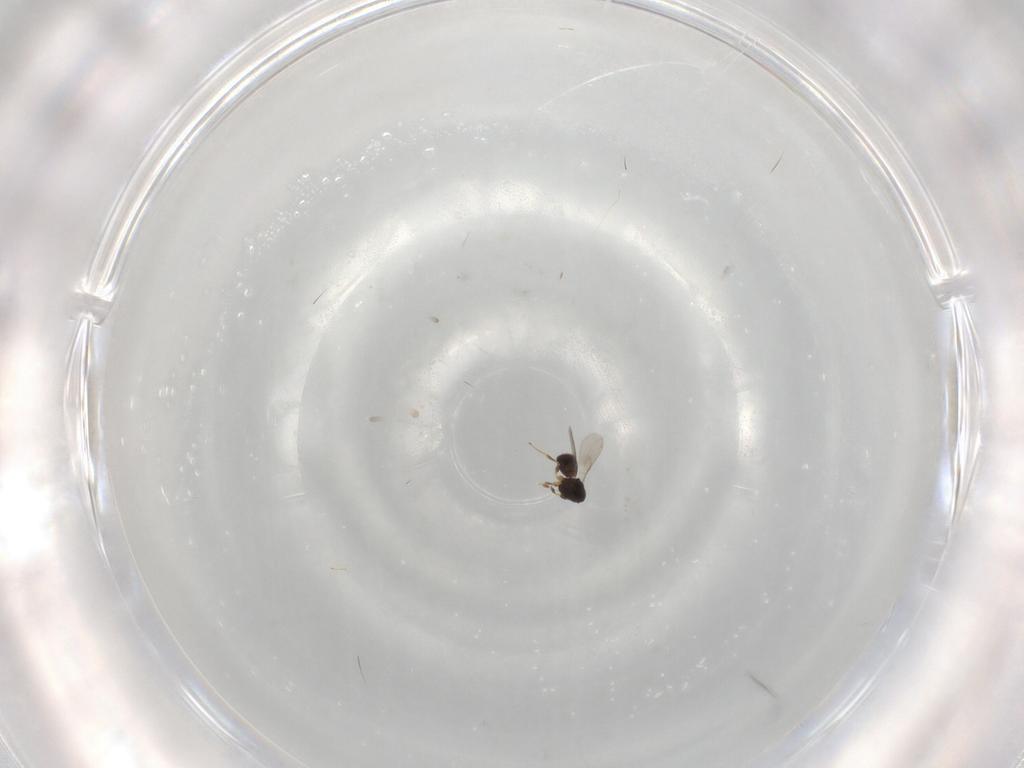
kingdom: Animalia
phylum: Arthropoda
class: Insecta
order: Hymenoptera
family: Scelionidae
